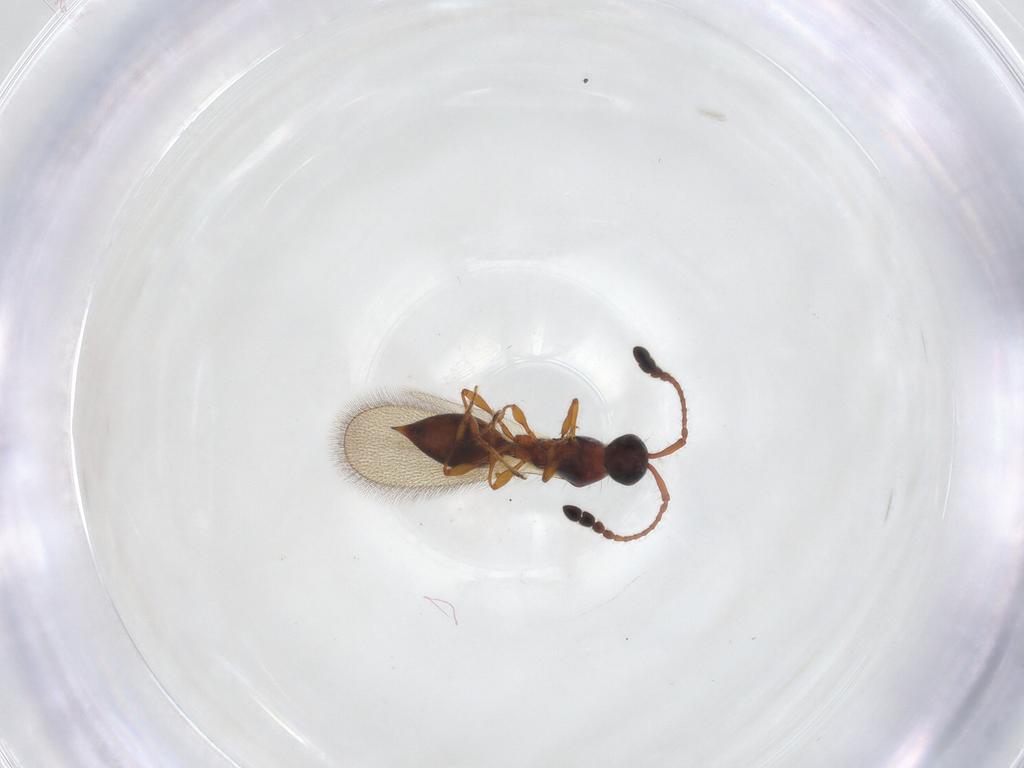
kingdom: Animalia
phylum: Arthropoda
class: Insecta
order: Hymenoptera
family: Diapriidae
